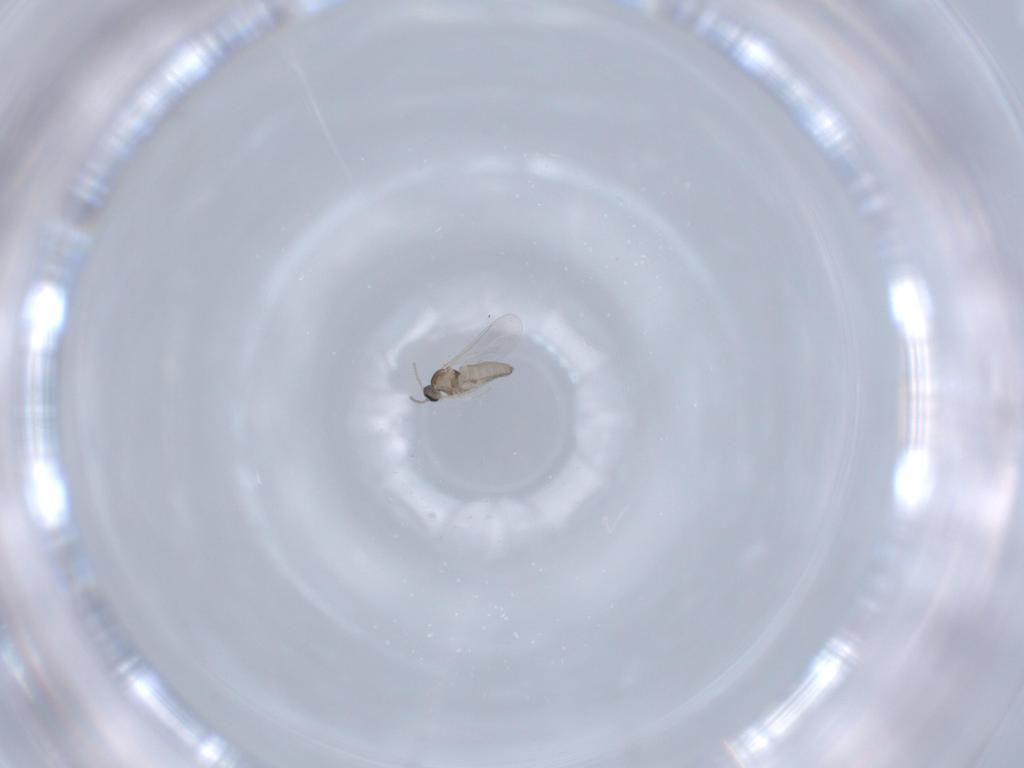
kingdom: Animalia
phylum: Arthropoda
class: Insecta
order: Diptera
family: Cecidomyiidae
